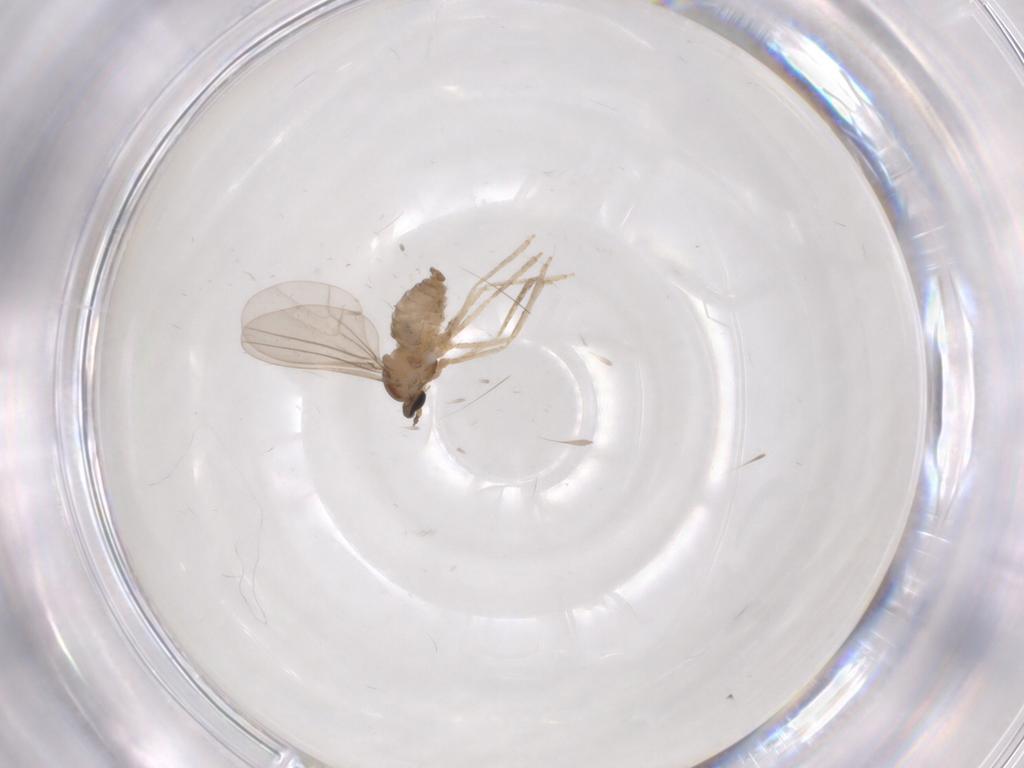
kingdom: Animalia
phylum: Arthropoda
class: Insecta
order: Diptera
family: Cecidomyiidae
